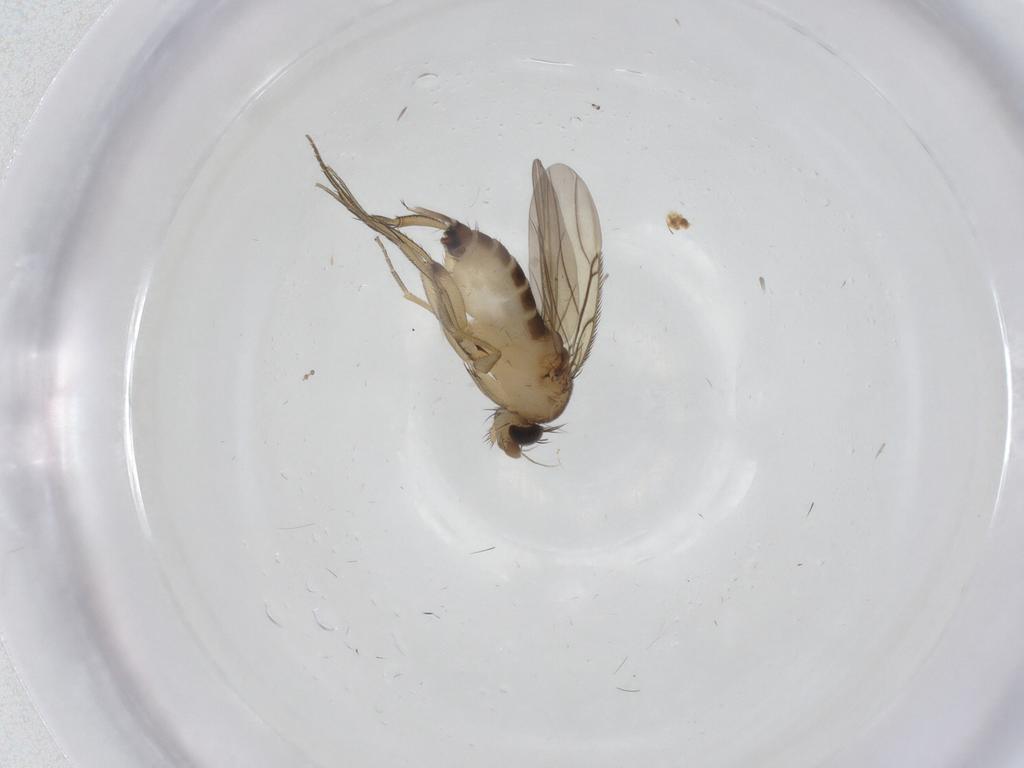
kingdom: Animalia
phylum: Arthropoda
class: Insecta
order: Diptera
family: Phoridae
